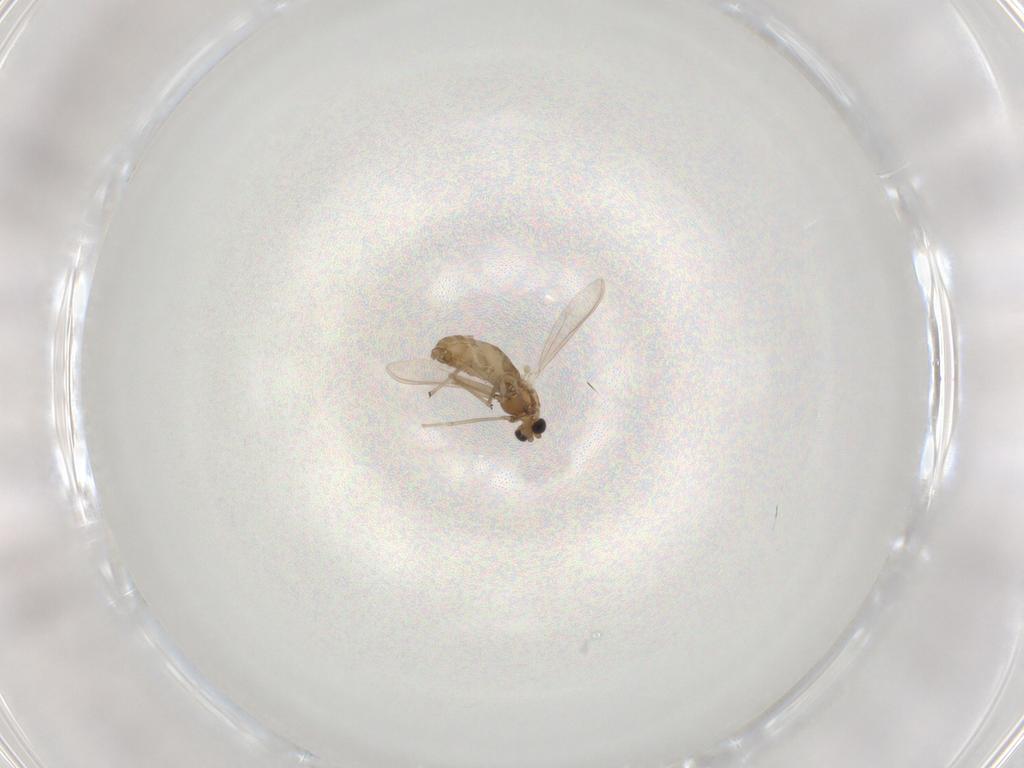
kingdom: Animalia
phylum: Arthropoda
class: Insecta
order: Diptera
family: Chironomidae
